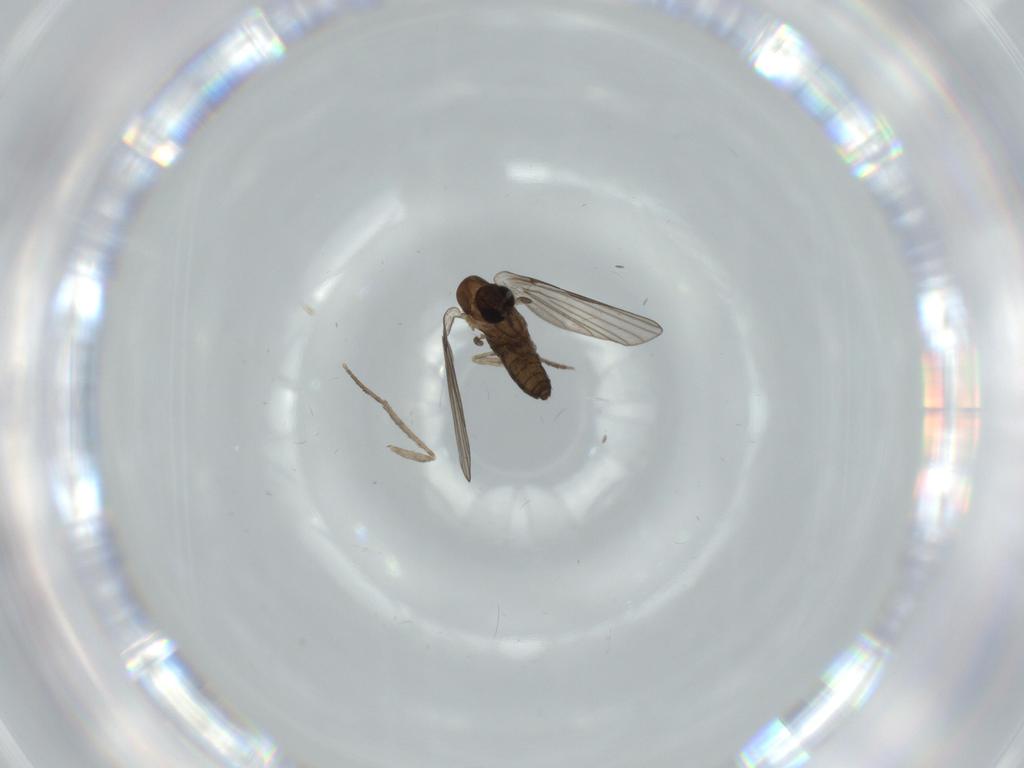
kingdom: Animalia
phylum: Arthropoda
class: Insecta
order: Diptera
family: Psychodidae
